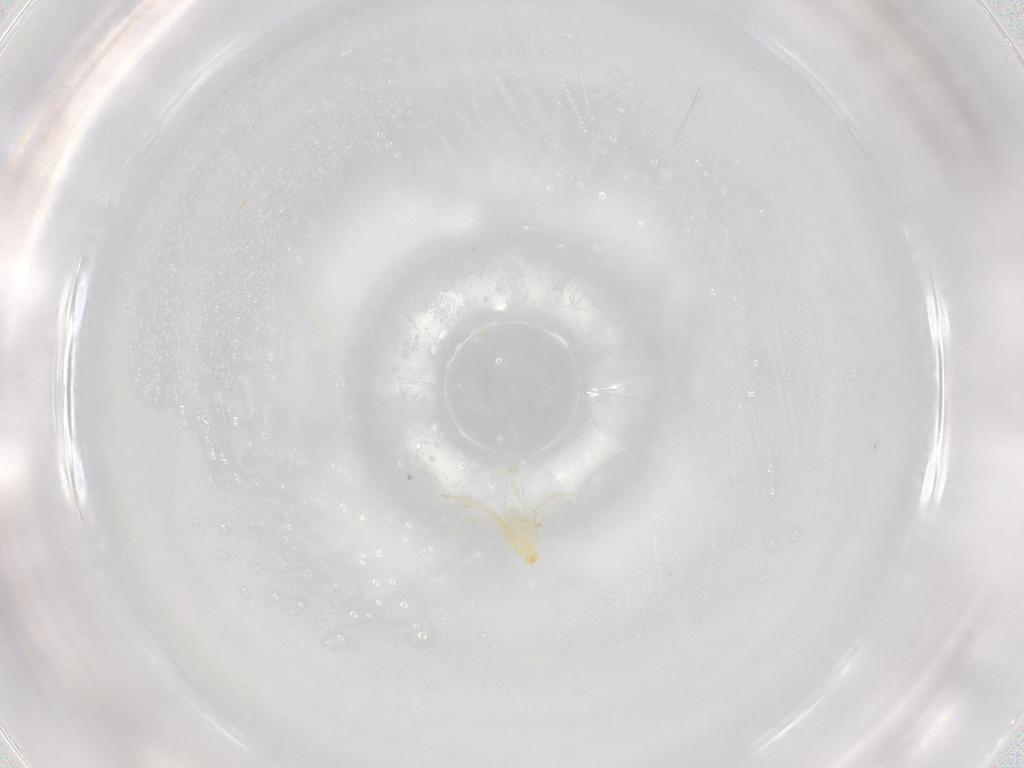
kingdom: Animalia
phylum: Arthropoda
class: Arachnida
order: Trombidiformes
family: Erythraeidae
